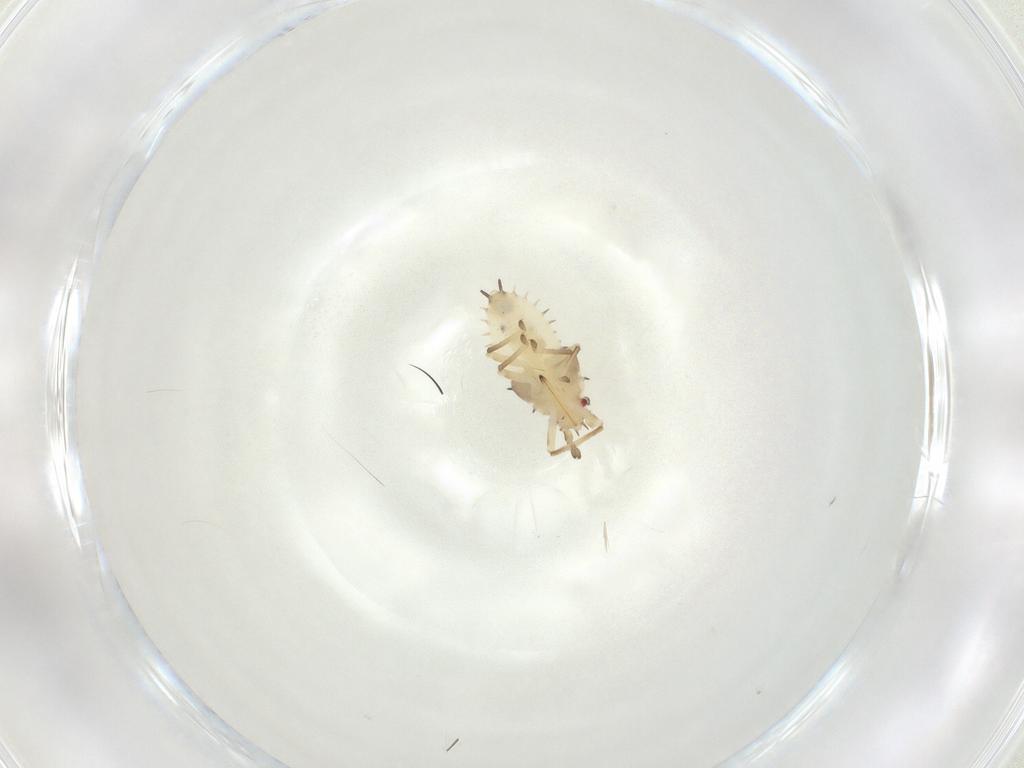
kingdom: Animalia
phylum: Arthropoda
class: Insecta
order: Hemiptera
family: Tingidae
